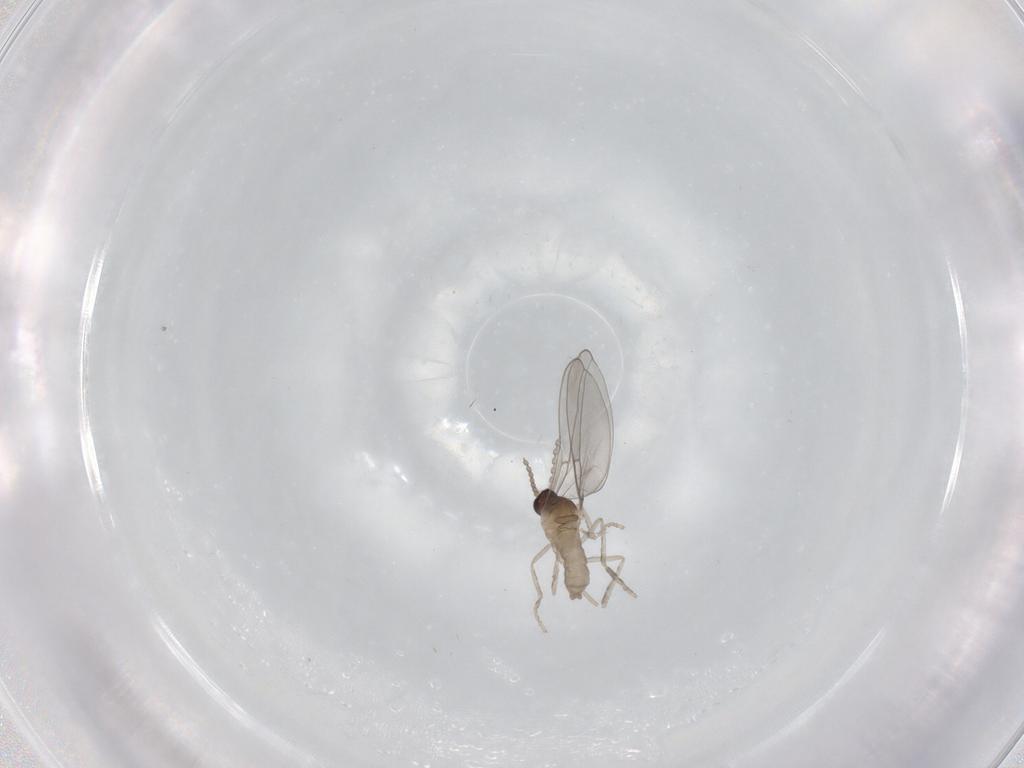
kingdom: Animalia
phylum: Arthropoda
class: Insecta
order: Diptera
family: Cecidomyiidae
